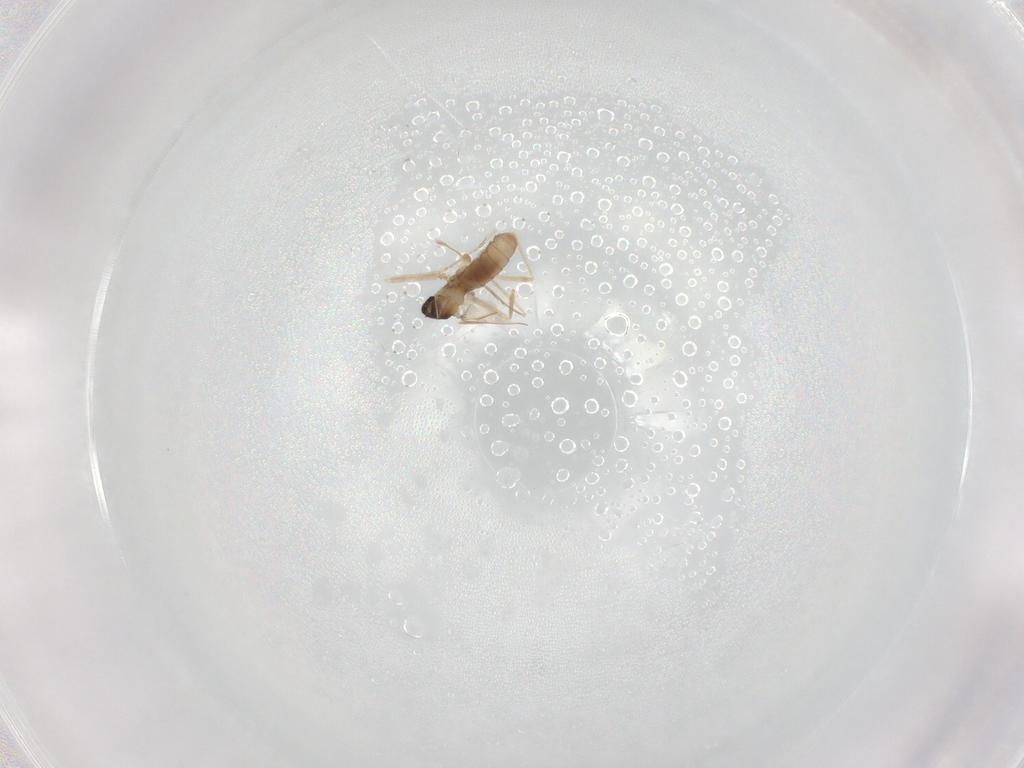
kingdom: Animalia
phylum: Arthropoda
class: Insecta
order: Diptera
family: Cecidomyiidae
